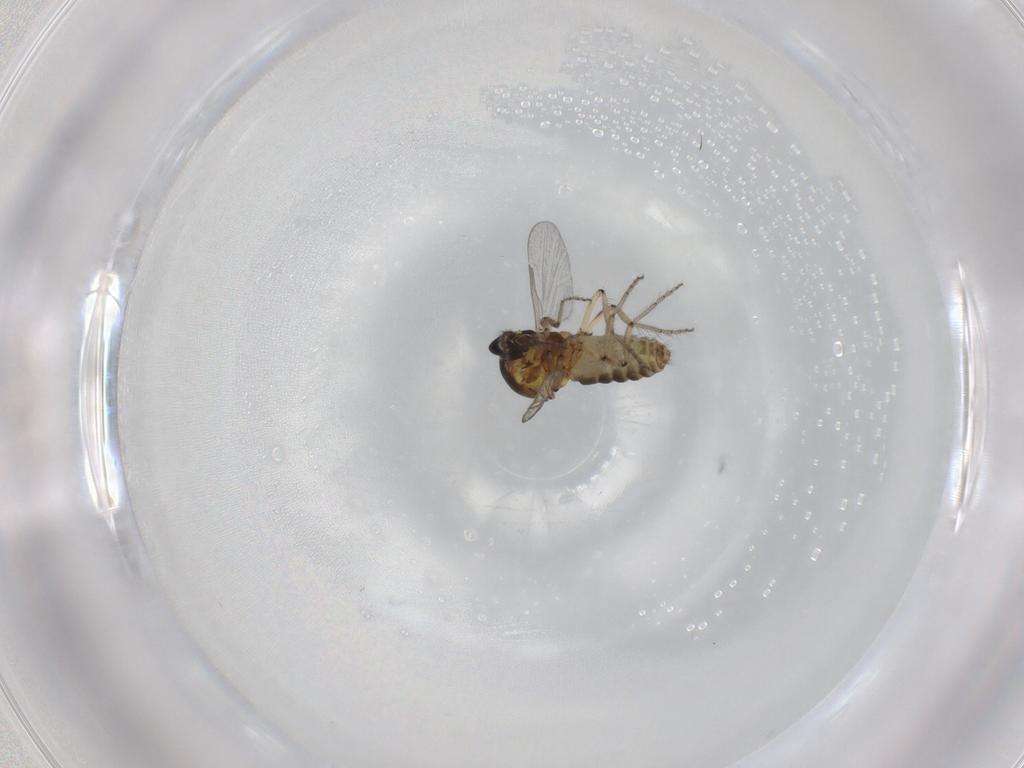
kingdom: Animalia
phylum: Arthropoda
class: Insecta
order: Diptera
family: Ceratopogonidae
